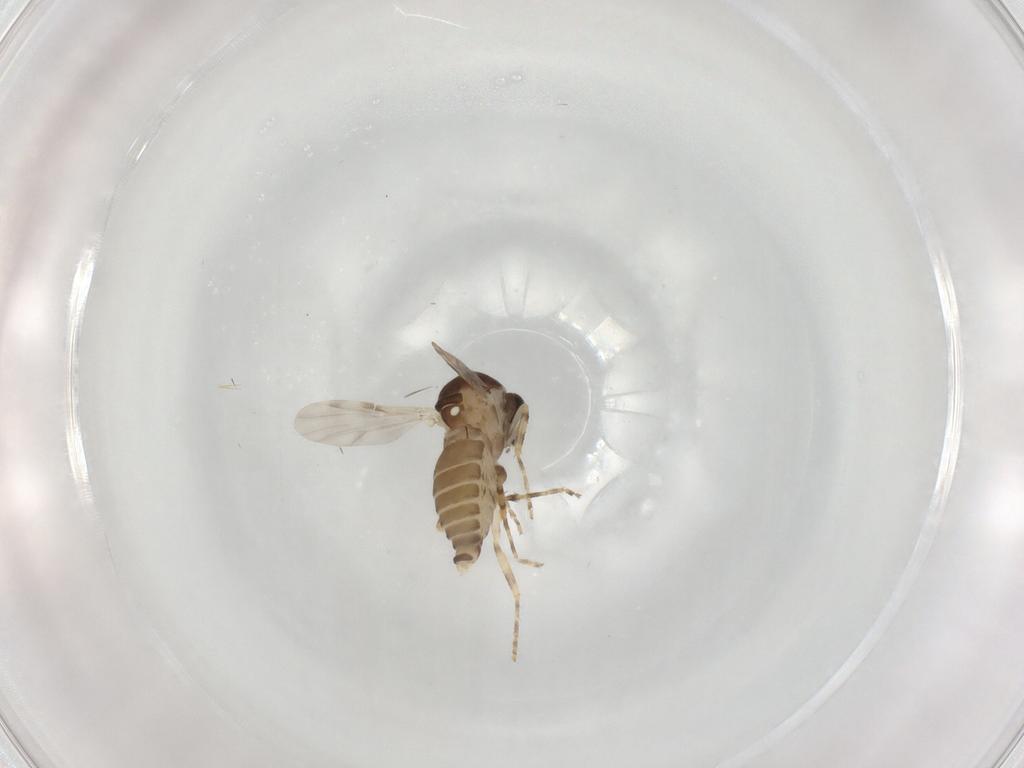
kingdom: Animalia
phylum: Arthropoda
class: Insecta
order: Diptera
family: Ceratopogonidae
